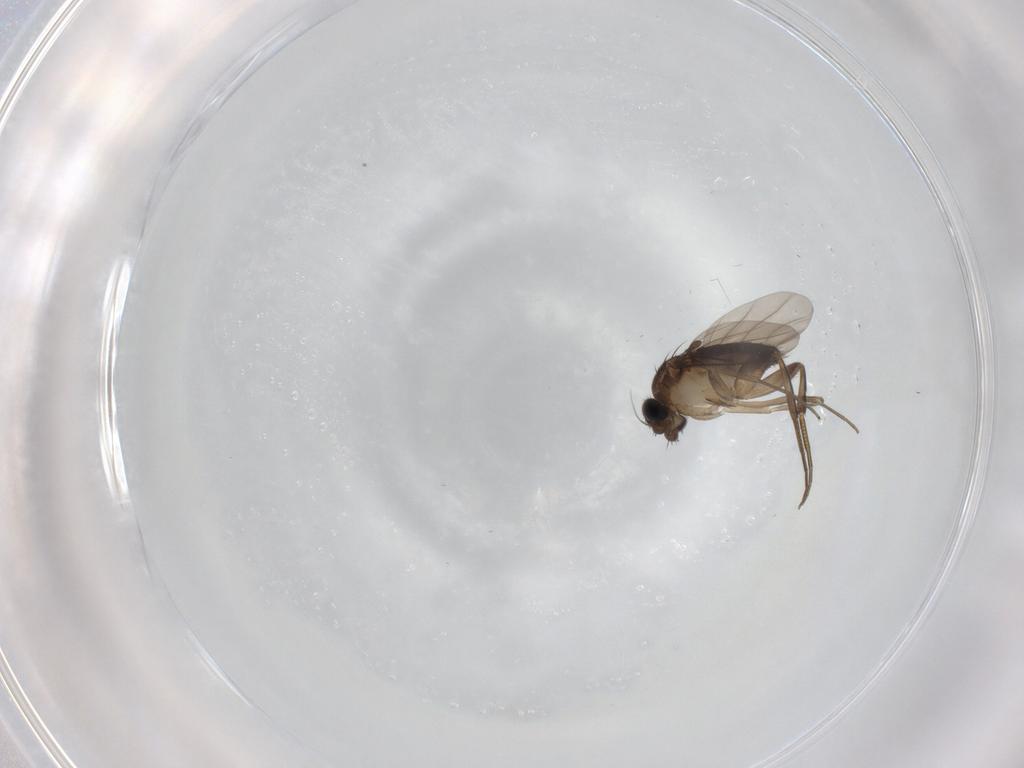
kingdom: Animalia
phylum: Arthropoda
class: Insecta
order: Diptera
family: Phoridae
